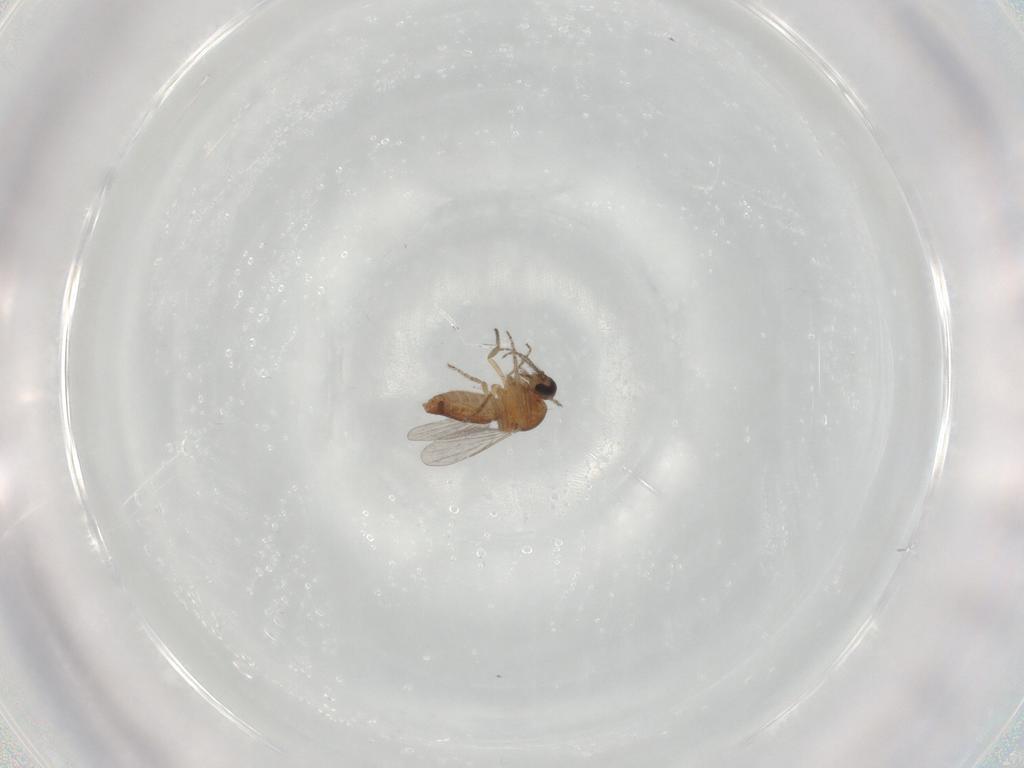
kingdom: Animalia
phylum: Arthropoda
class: Insecta
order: Diptera
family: Ceratopogonidae
